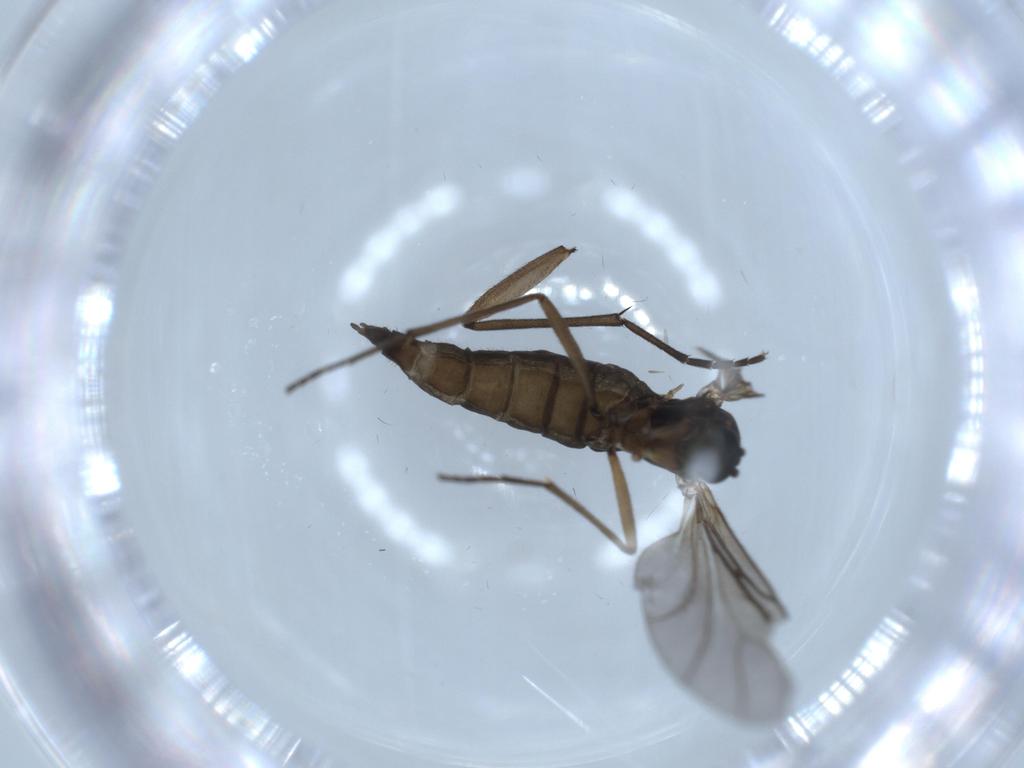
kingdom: Animalia
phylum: Arthropoda
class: Insecta
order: Diptera
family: Sciaridae
